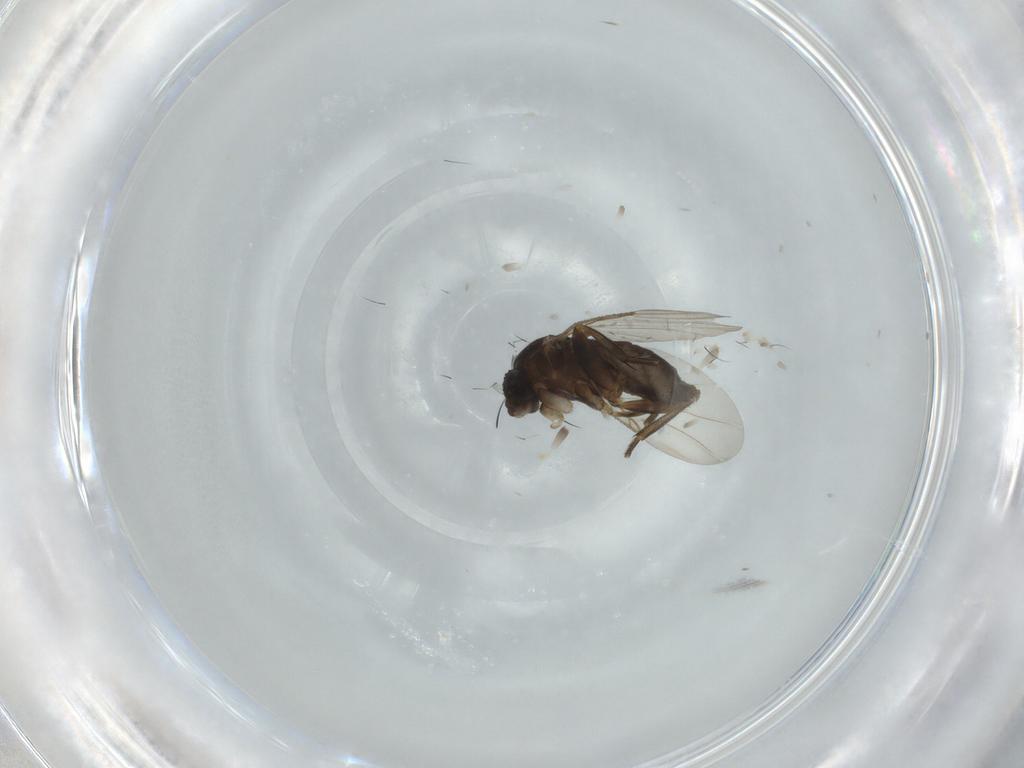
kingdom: Animalia
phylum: Arthropoda
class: Insecta
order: Diptera
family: Phoridae
